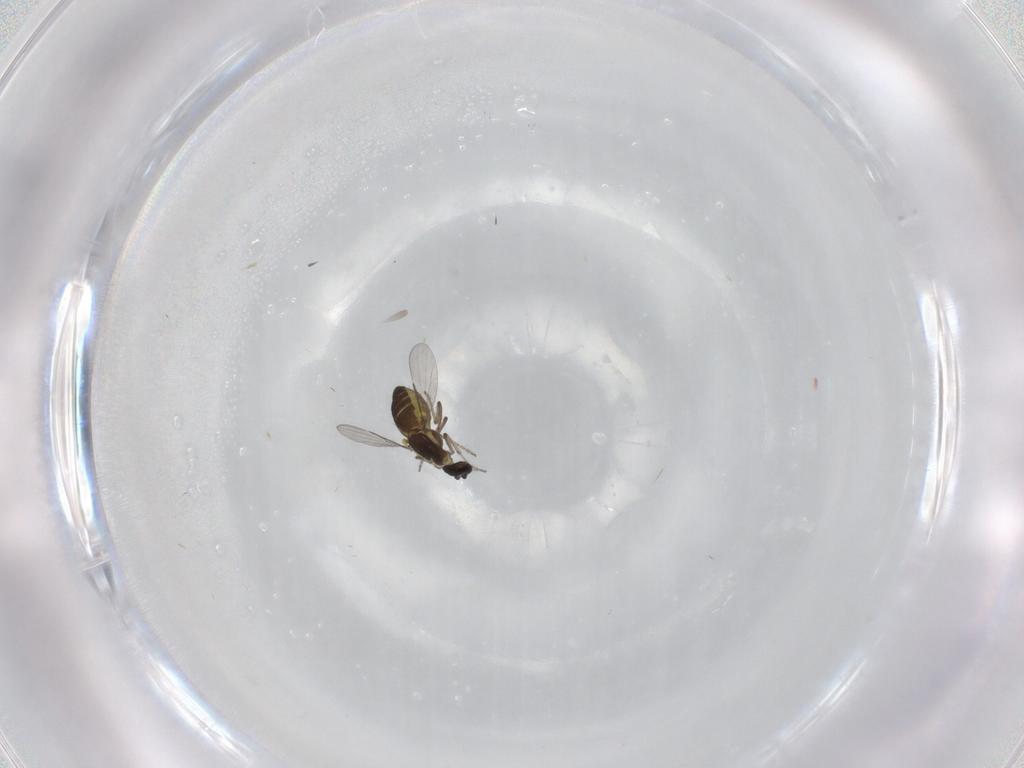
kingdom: Animalia
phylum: Arthropoda
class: Insecta
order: Diptera
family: Ceratopogonidae
